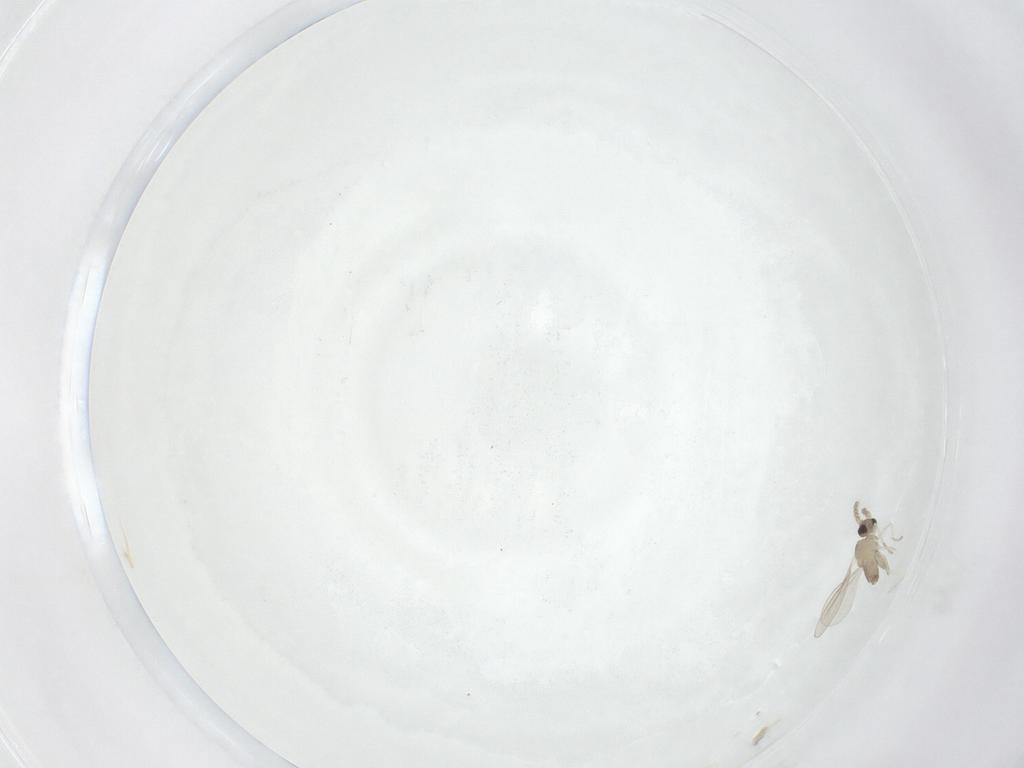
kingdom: Animalia
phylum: Arthropoda
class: Insecta
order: Diptera
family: Cecidomyiidae
